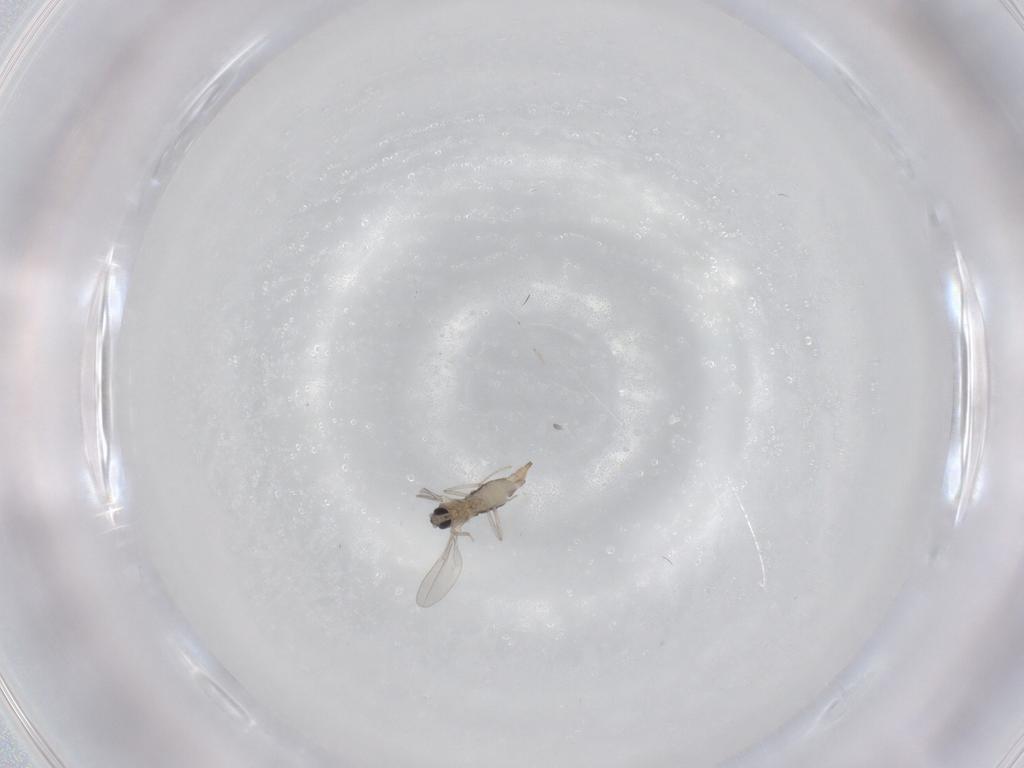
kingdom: Animalia
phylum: Arthropoda
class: Insecta
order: Diptera
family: Cecidomyiidae
